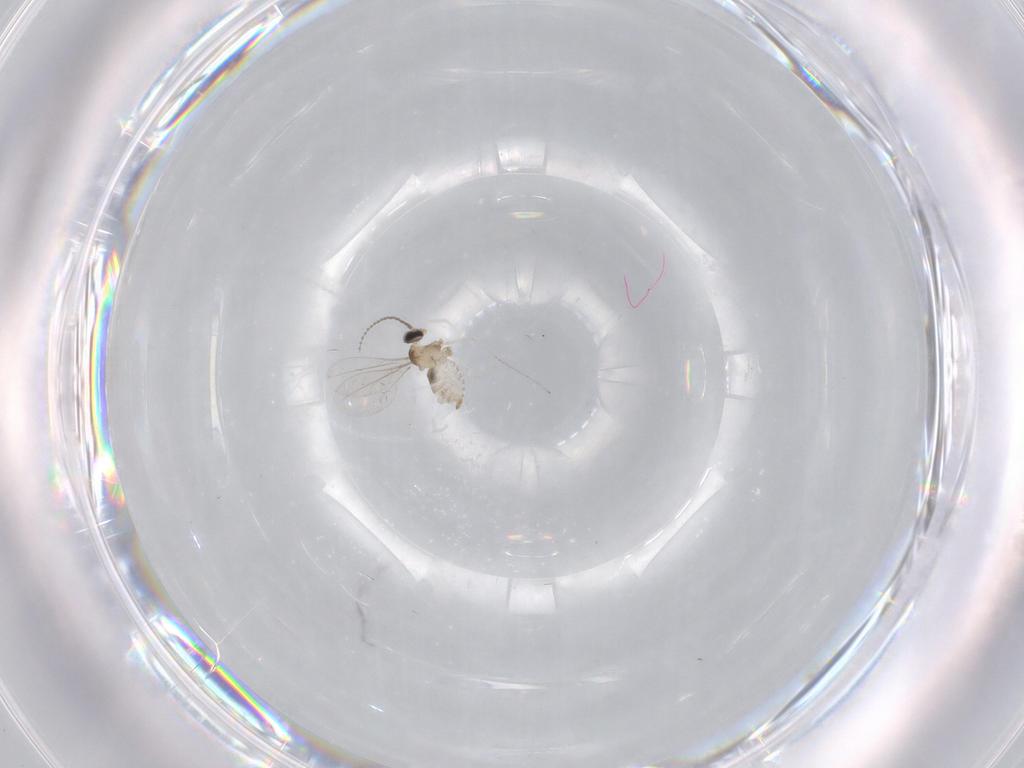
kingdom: Animalia
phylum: Arthropoda
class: Insecta
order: Diptera
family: Cecidomyiidae
